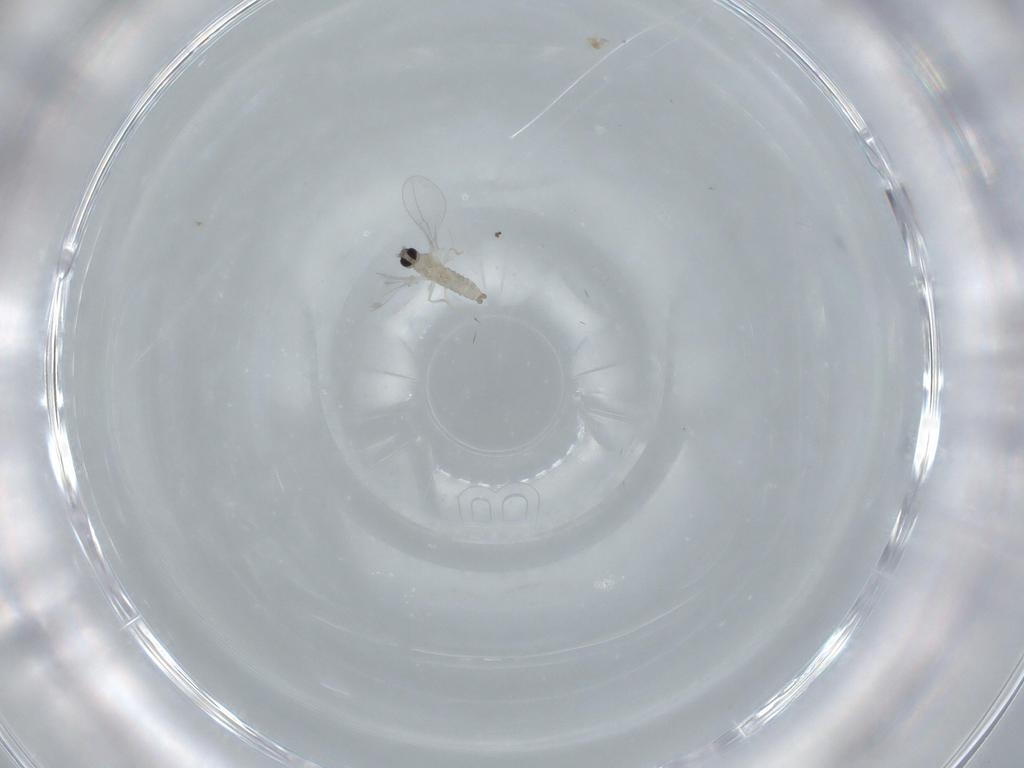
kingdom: Animalia
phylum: Arthropoda
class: Insecta
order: Diptera
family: Cecidomyiidae
